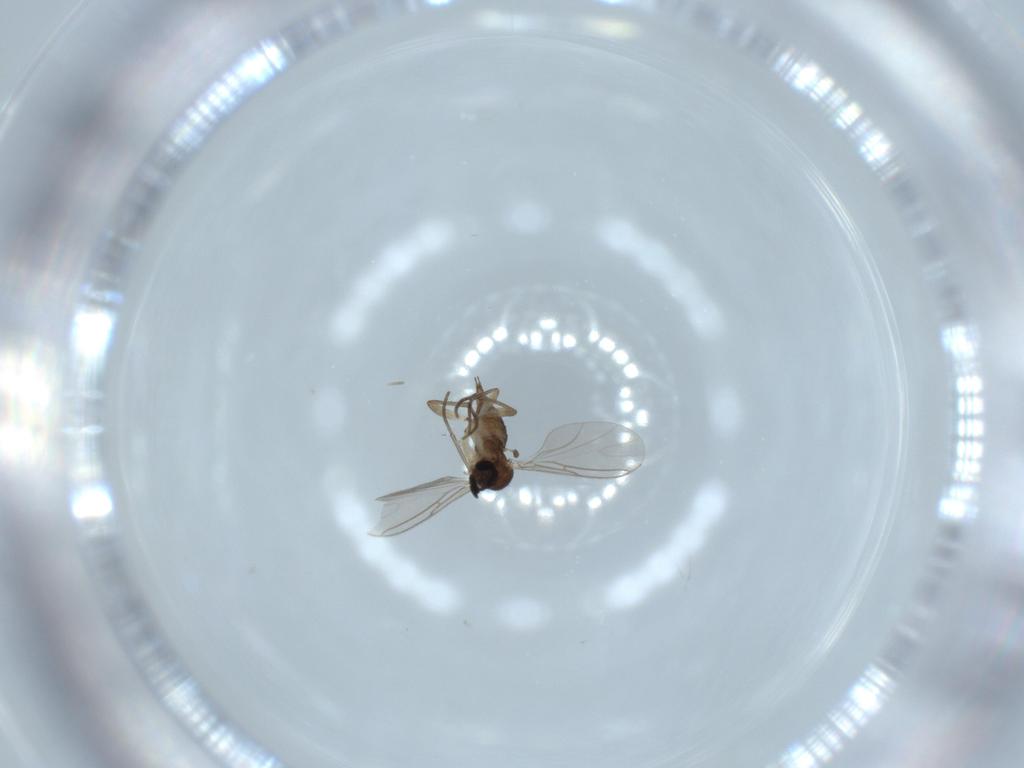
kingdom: Animalia
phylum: Arthropoda
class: Insecta
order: Diptera
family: Sciaridae
